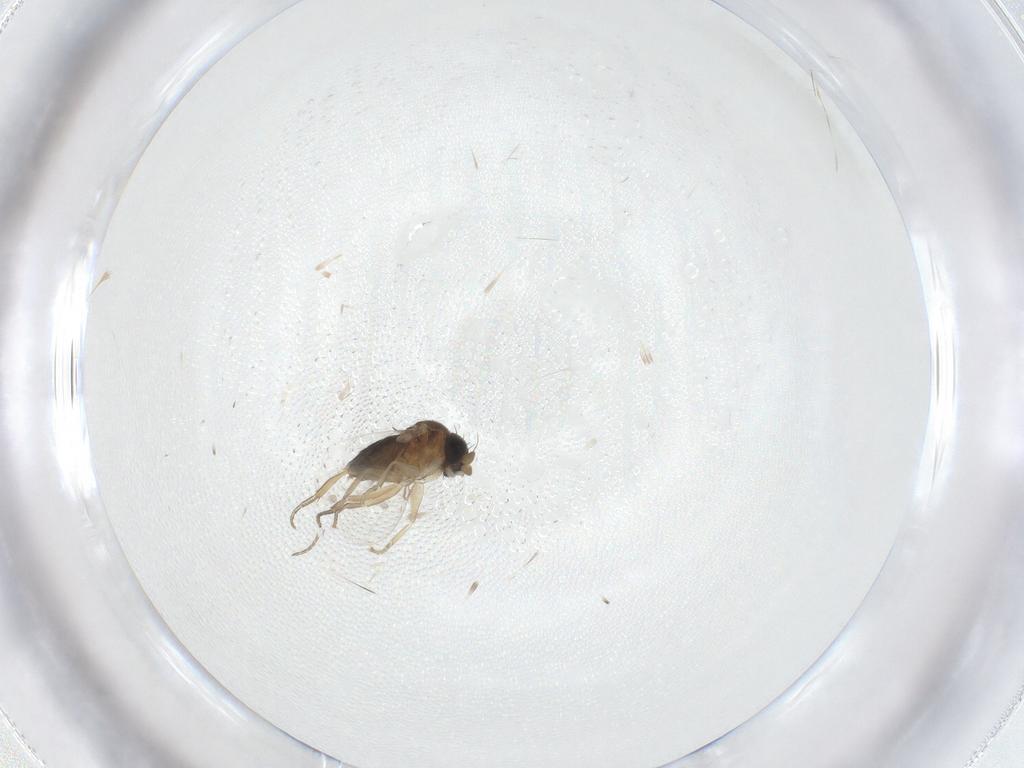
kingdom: Animalia
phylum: Arthropoda
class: Insecta
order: Diptera
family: Phoridae
